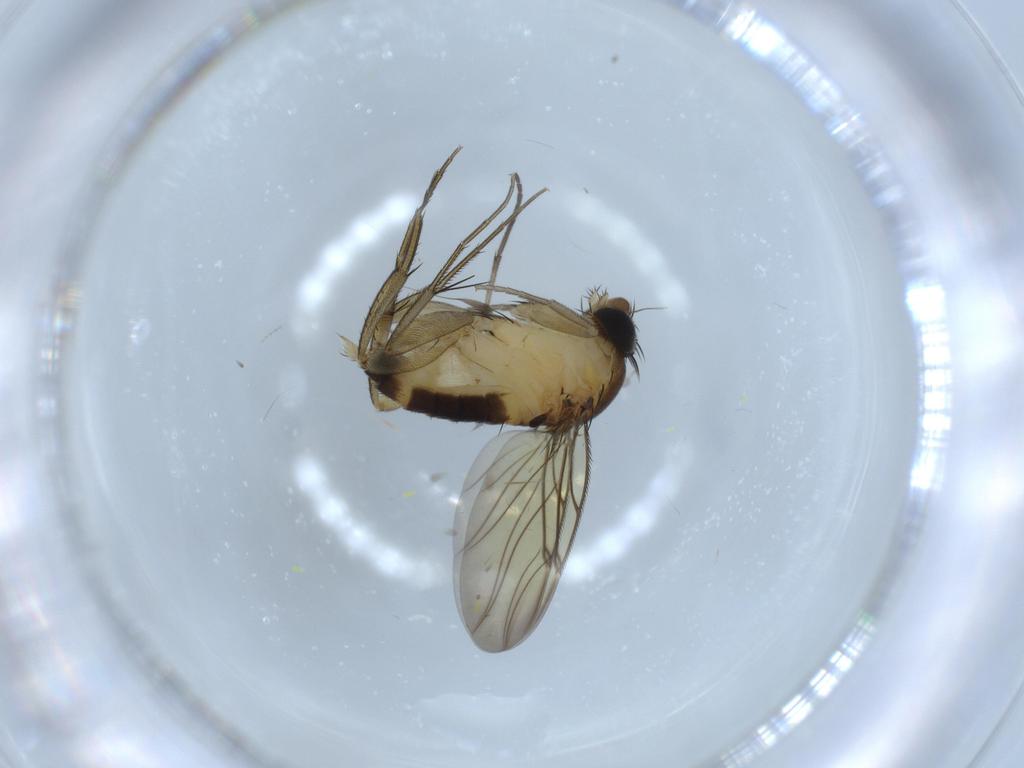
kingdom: Animalia
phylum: Arthropoda
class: Insecta
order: Diptera
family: Phoridae
